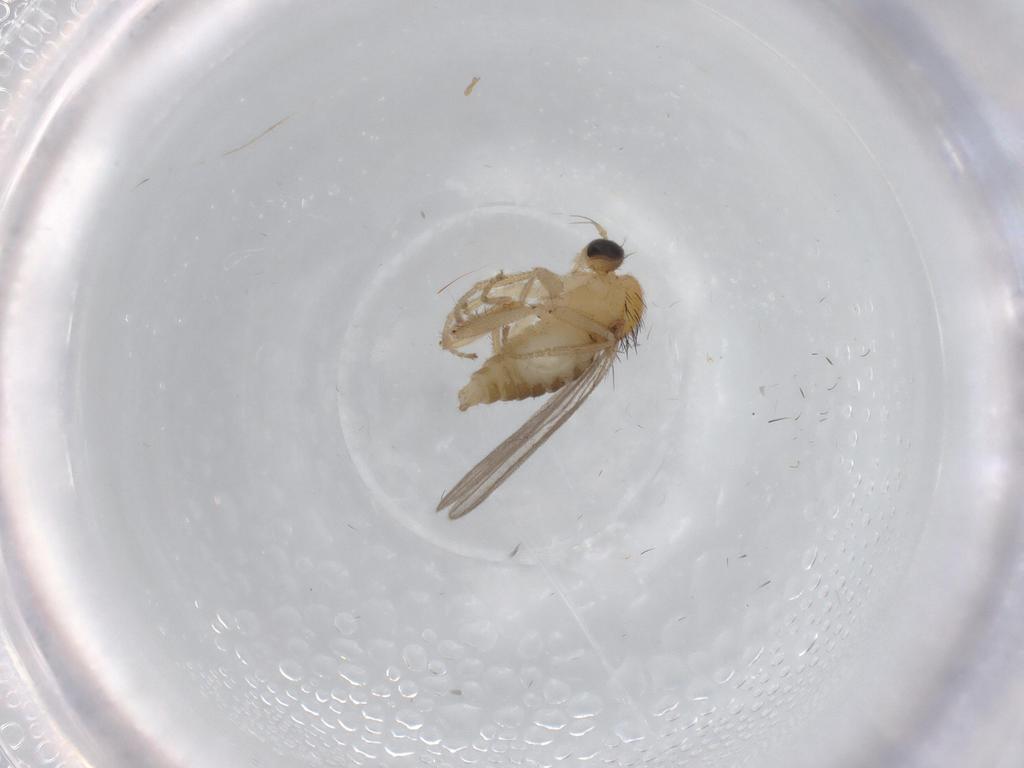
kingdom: Animalia
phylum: Arthropoda
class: Insecta
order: Diptera
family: Hybotidae
